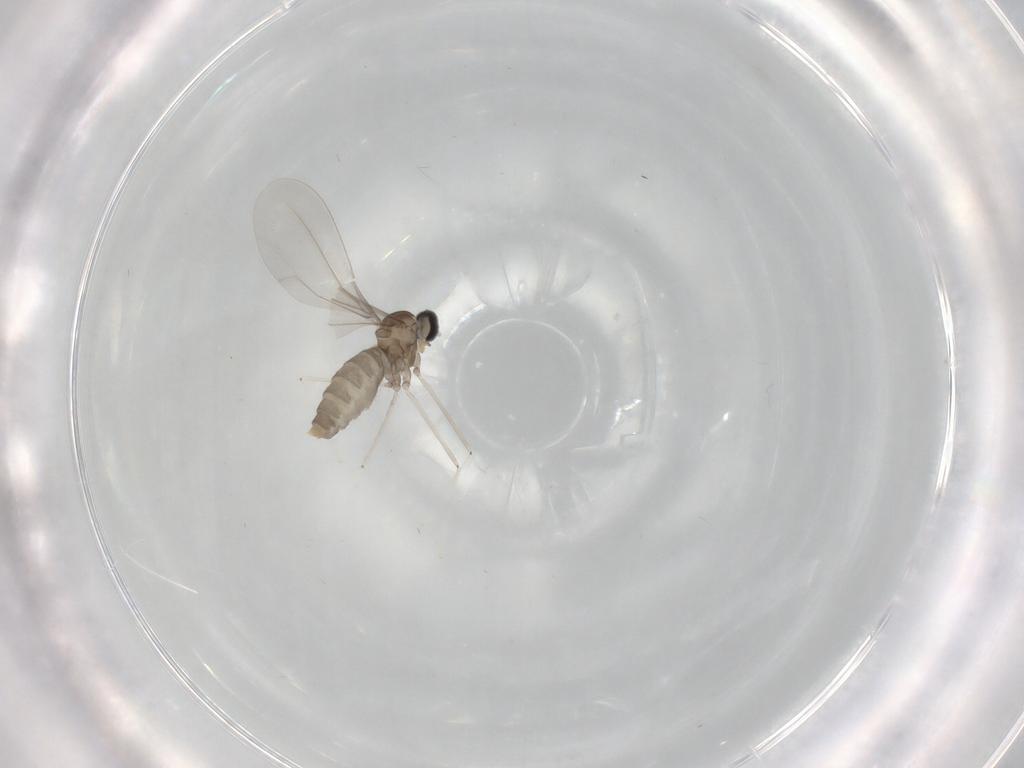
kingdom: Animalia
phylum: Arthropoda
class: Insecta
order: Diptera
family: Cecidomyiidae
